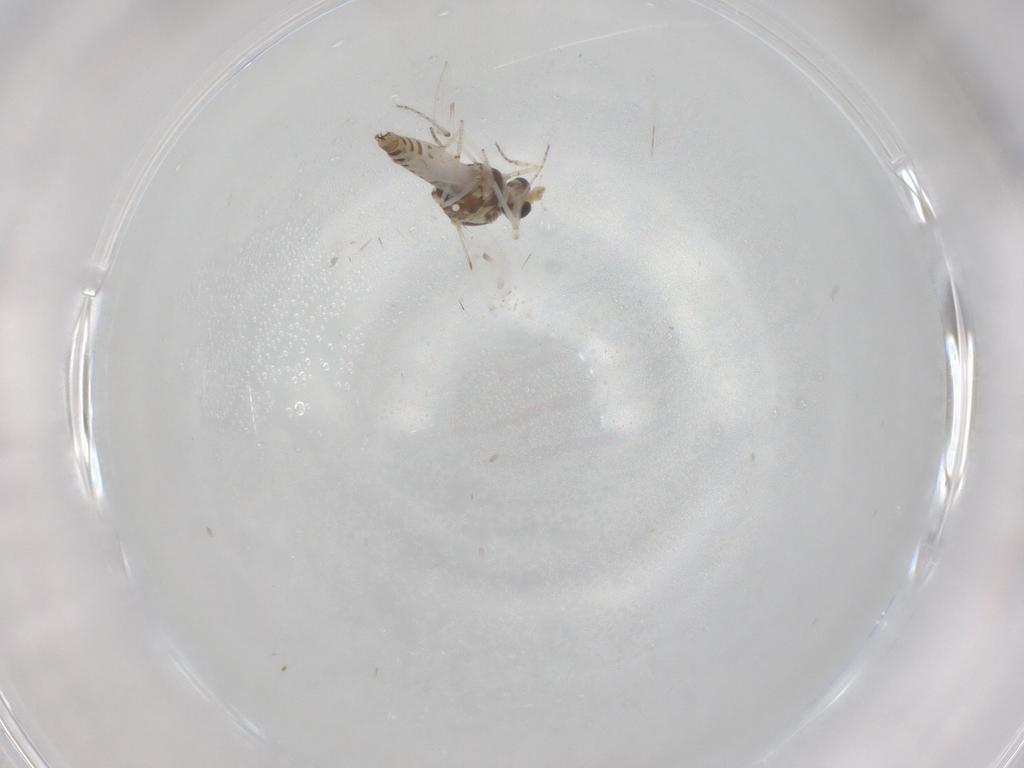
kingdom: Animalia
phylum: Arthropoda
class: Insecta
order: Diptera
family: Ceratopogonidae
